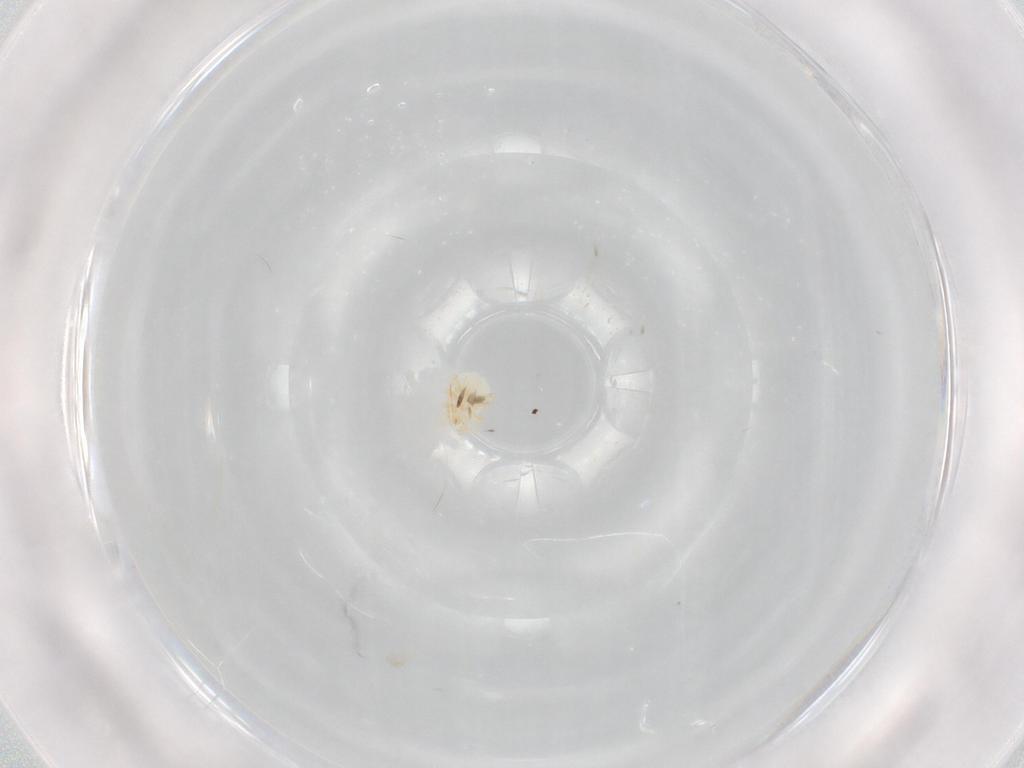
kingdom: Animalia
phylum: Arthropoda
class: Arachnida
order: Mesostigmata
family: Melicharidae
